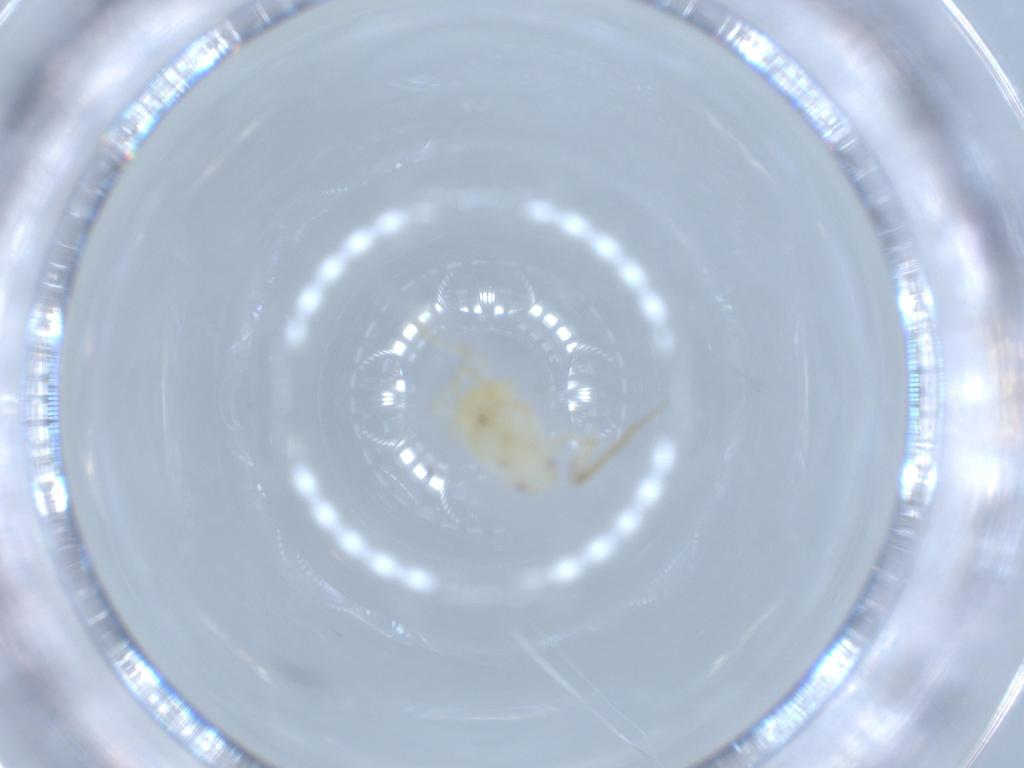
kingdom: Animalia
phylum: Arthropoda
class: Insecta
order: Hemiptera
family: Flatidae
